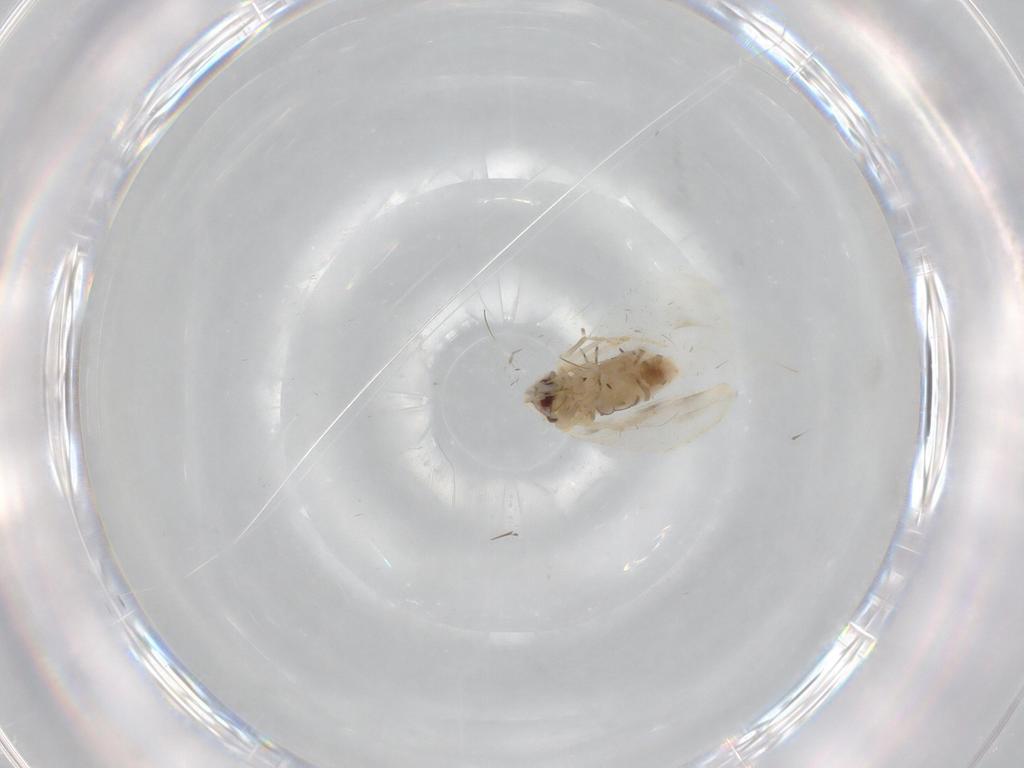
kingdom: Animalia
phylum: Arthropoda
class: Insecta
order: Hemiptera
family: Aleyrodidae
